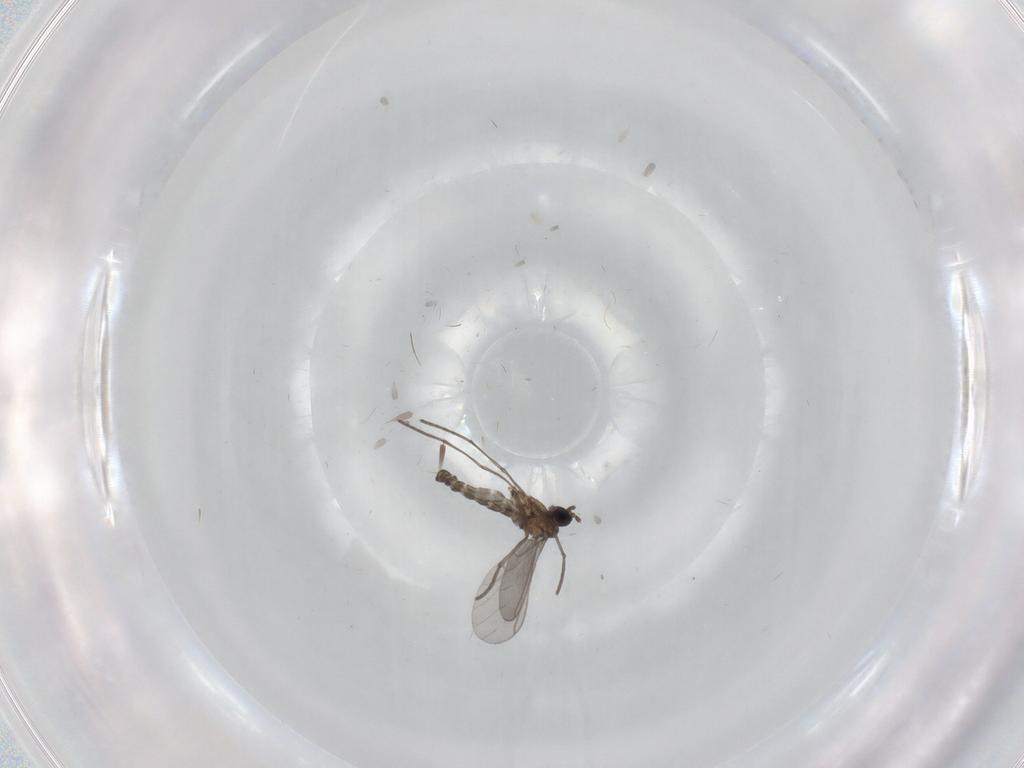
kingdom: Animalia
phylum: Arthropoda
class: Insecta
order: Diptera
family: Sciaridae
